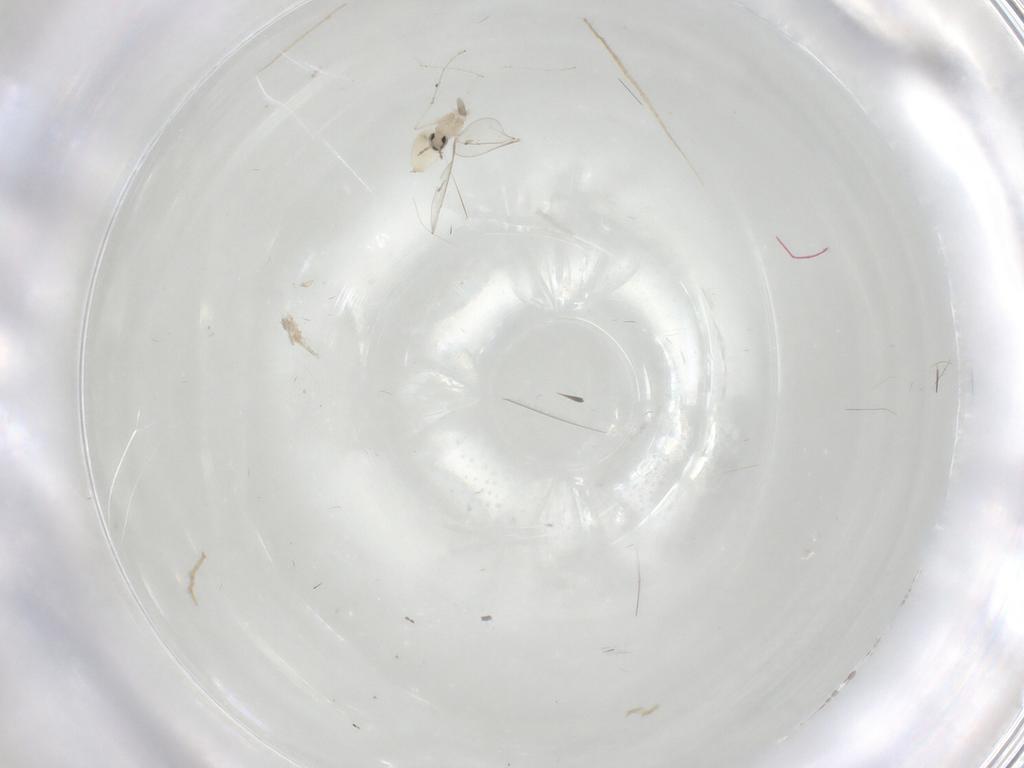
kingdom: Animalia
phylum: Arthropoda
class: Insecta
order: Diptera
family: Cecidomyiidae
